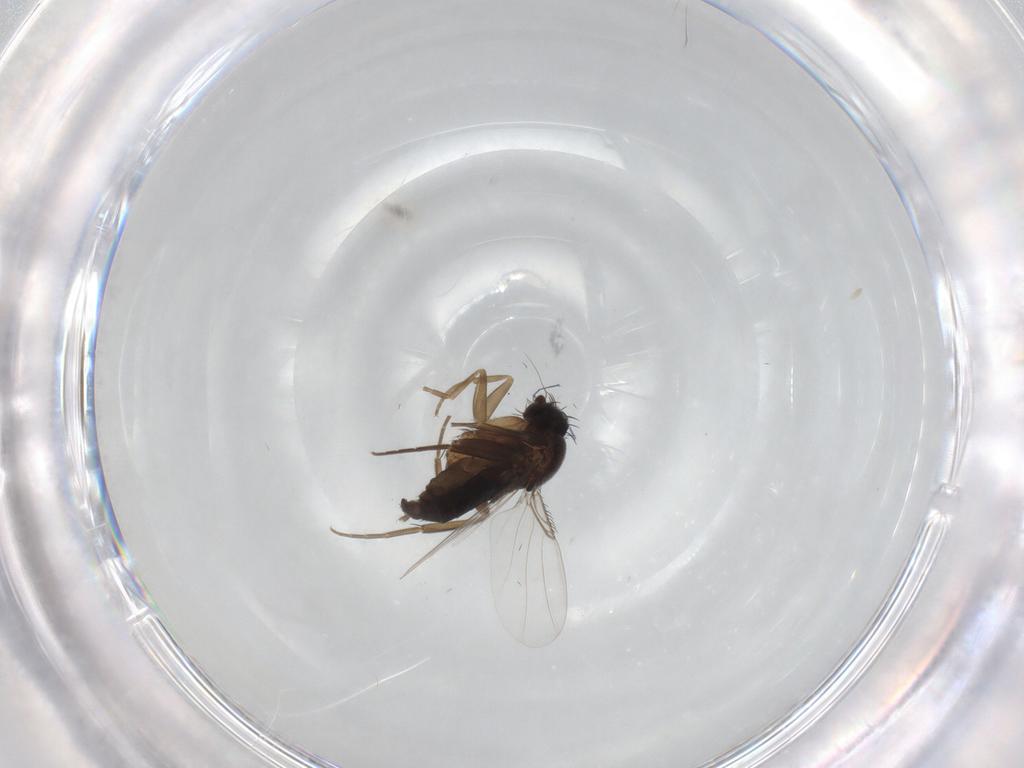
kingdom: Animalia
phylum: Arthropoda
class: Insecta
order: Diptera
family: Phoridae
